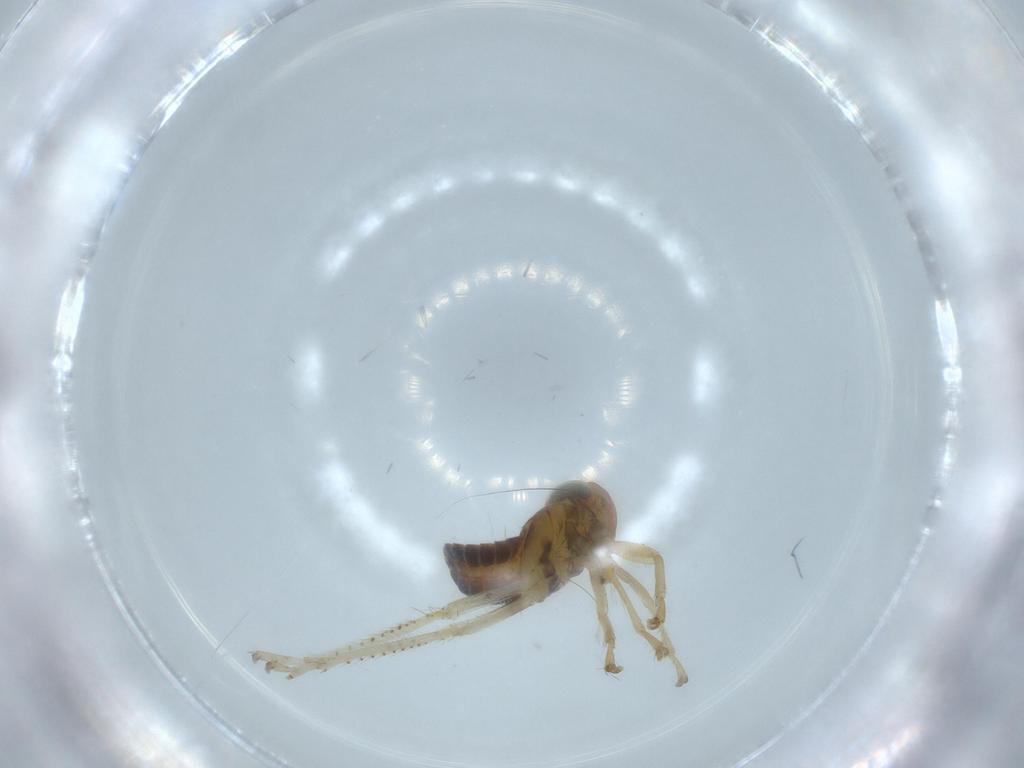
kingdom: Animalia
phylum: Arthropoda
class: Insecta
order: Hemiptera
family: Cicadellidae
